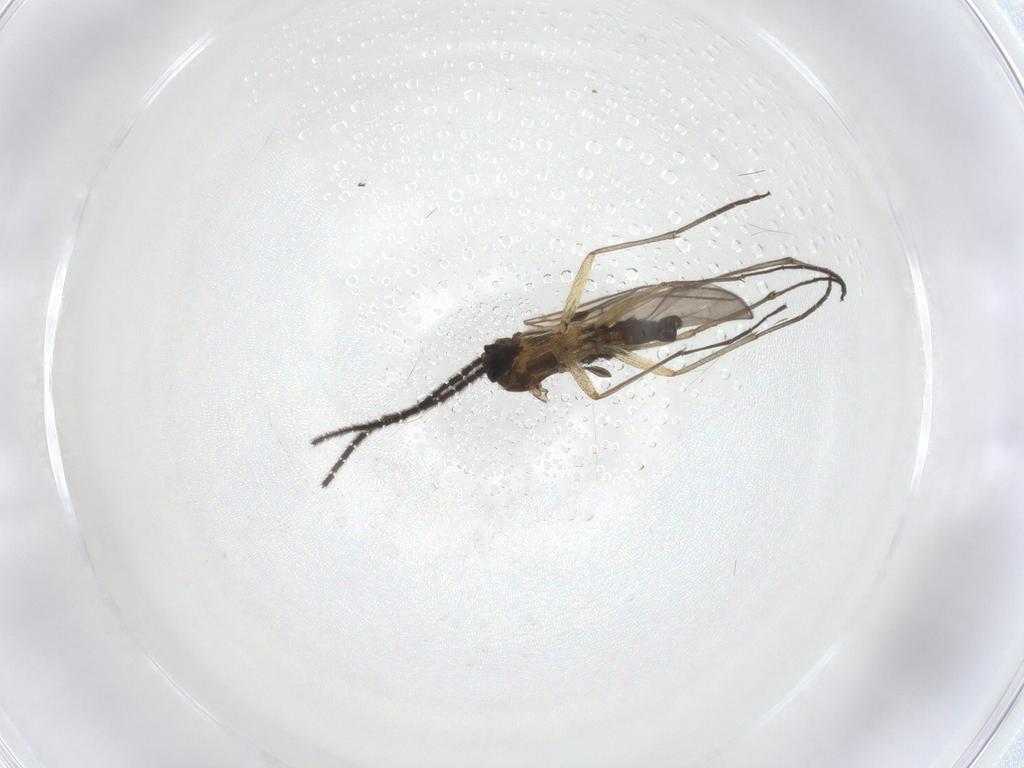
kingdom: Animalia
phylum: Arthropoda
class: Insecta
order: Diptera
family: Sciaridae
